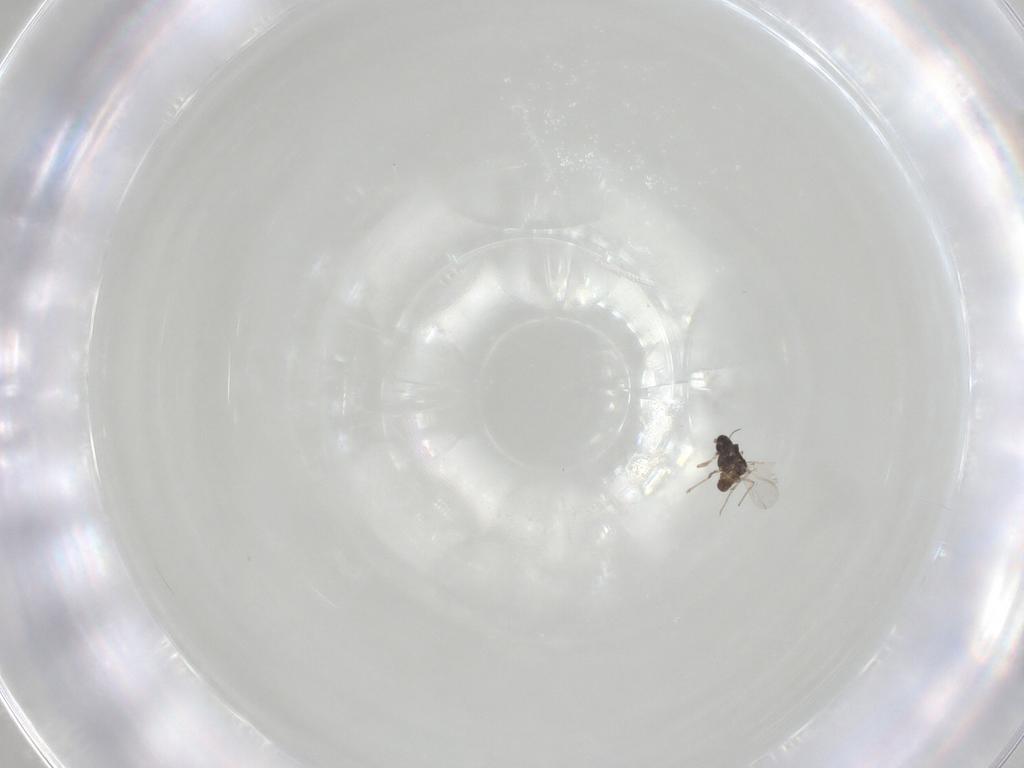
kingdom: Animalia
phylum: Arthropoda
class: Insecta
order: Diptera
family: Chironomidae
